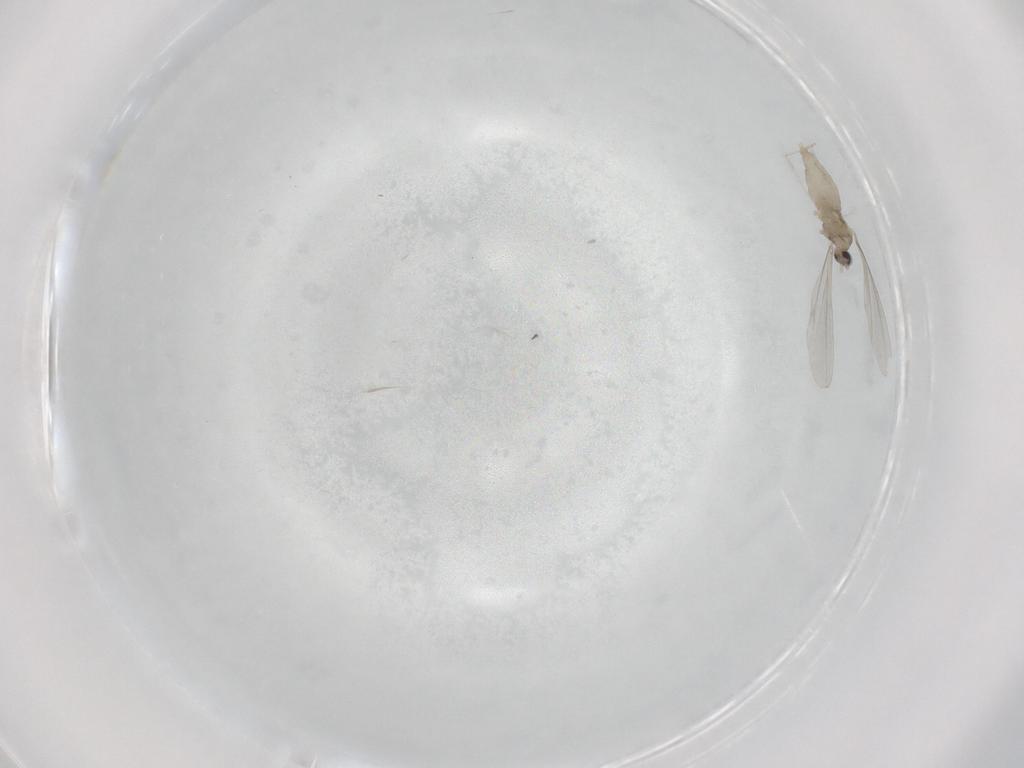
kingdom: Animalia
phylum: Arthropoda
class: Insecta
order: Diptera
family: Cecidomyiidae
